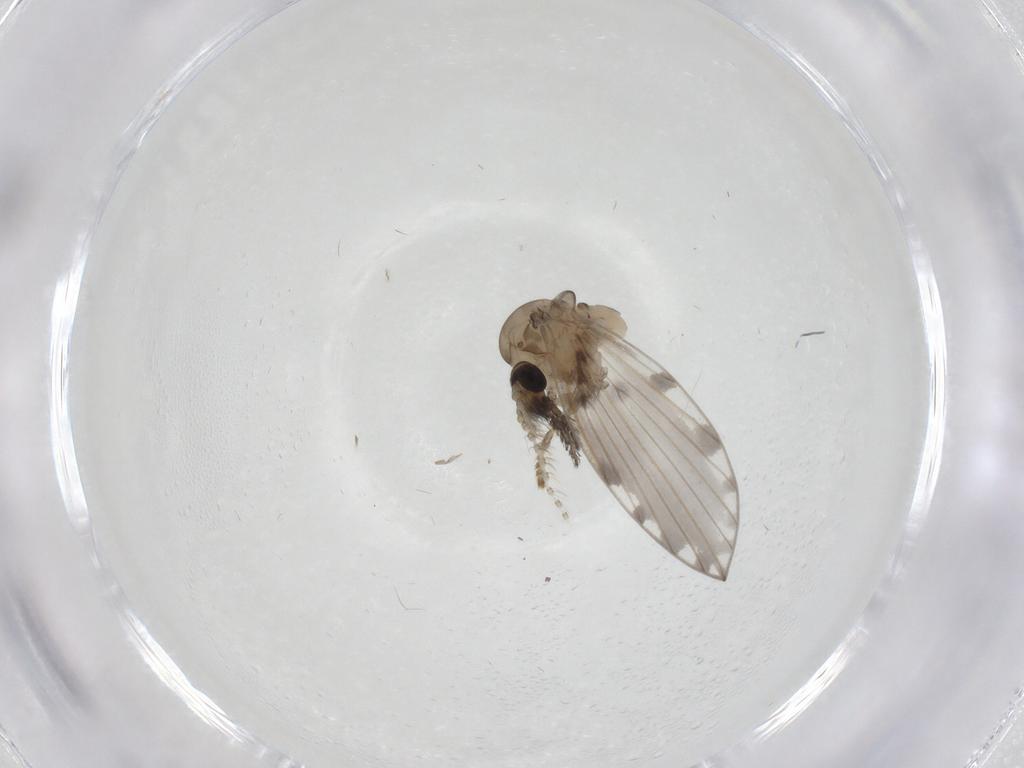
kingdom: Animalia
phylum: Arthropoda
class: Insecta
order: Diptera
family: Psychodidae
